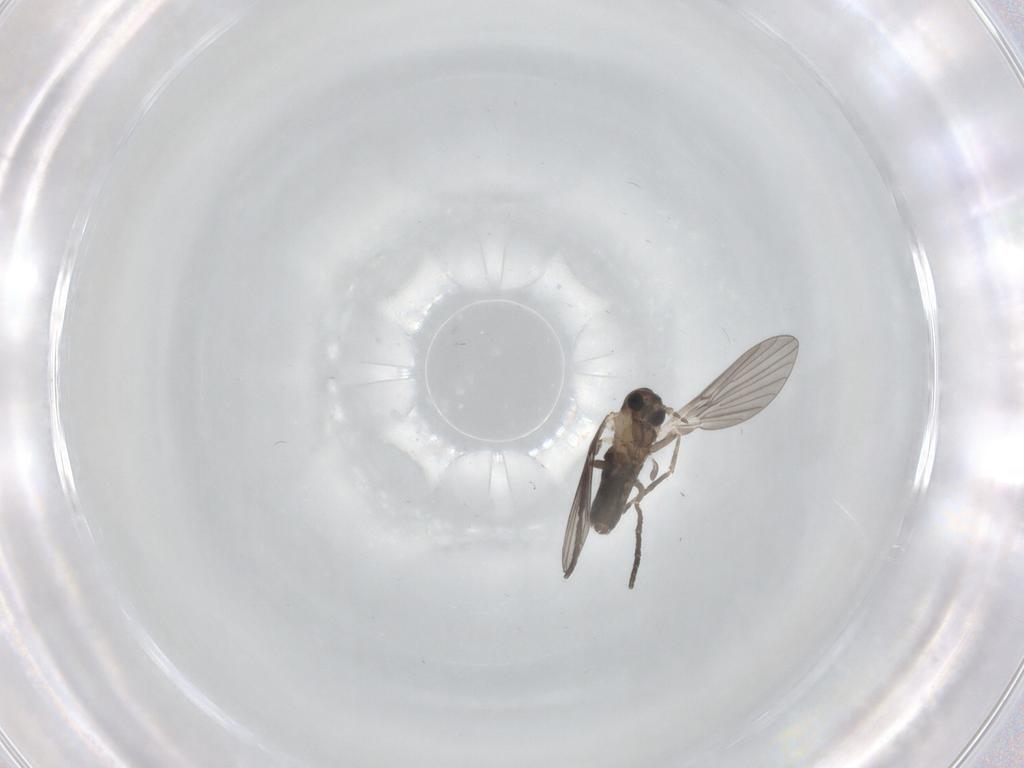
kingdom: Animalia
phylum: Arthropoda
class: Insecta
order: Diptera
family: Psychodidae
